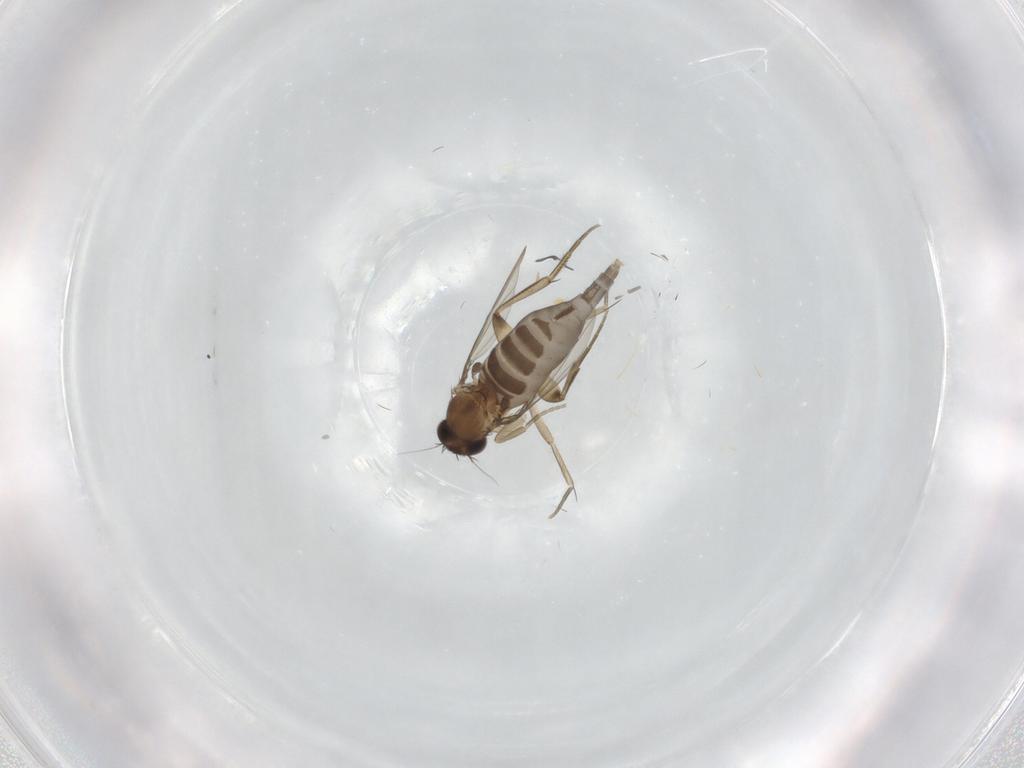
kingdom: Animalia
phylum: Arthropoda
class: Insecta
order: Diptera
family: Phoridae
